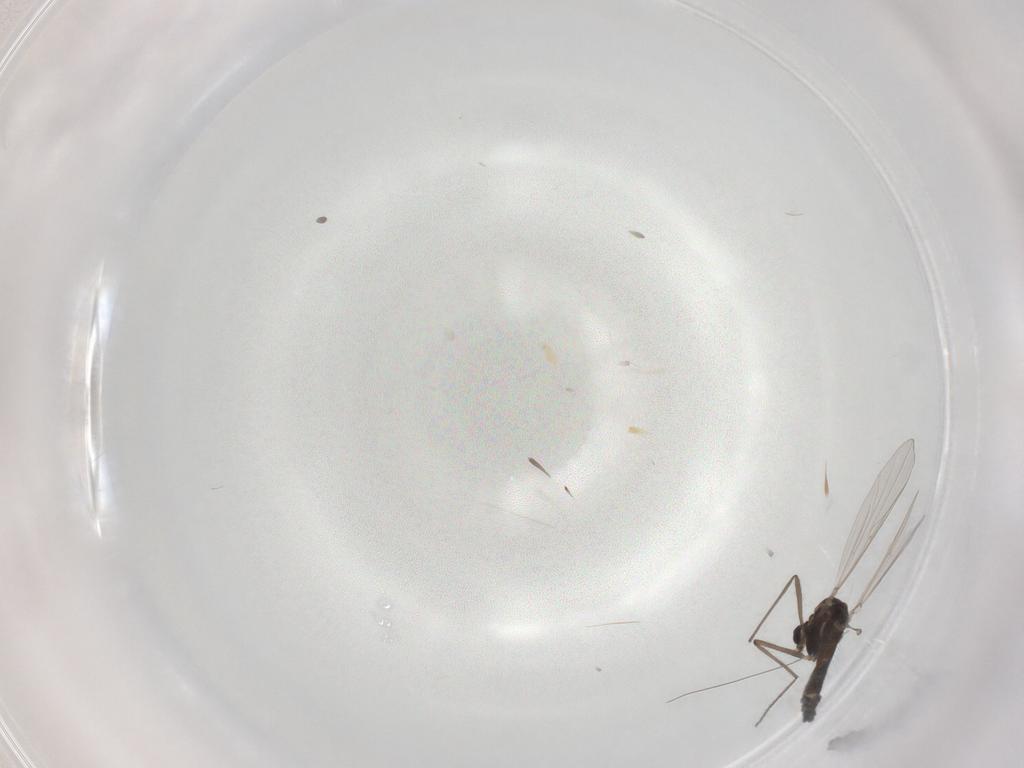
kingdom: Animalia
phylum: Arthropoda
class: Insecta
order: Diptera
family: Chironomidae
